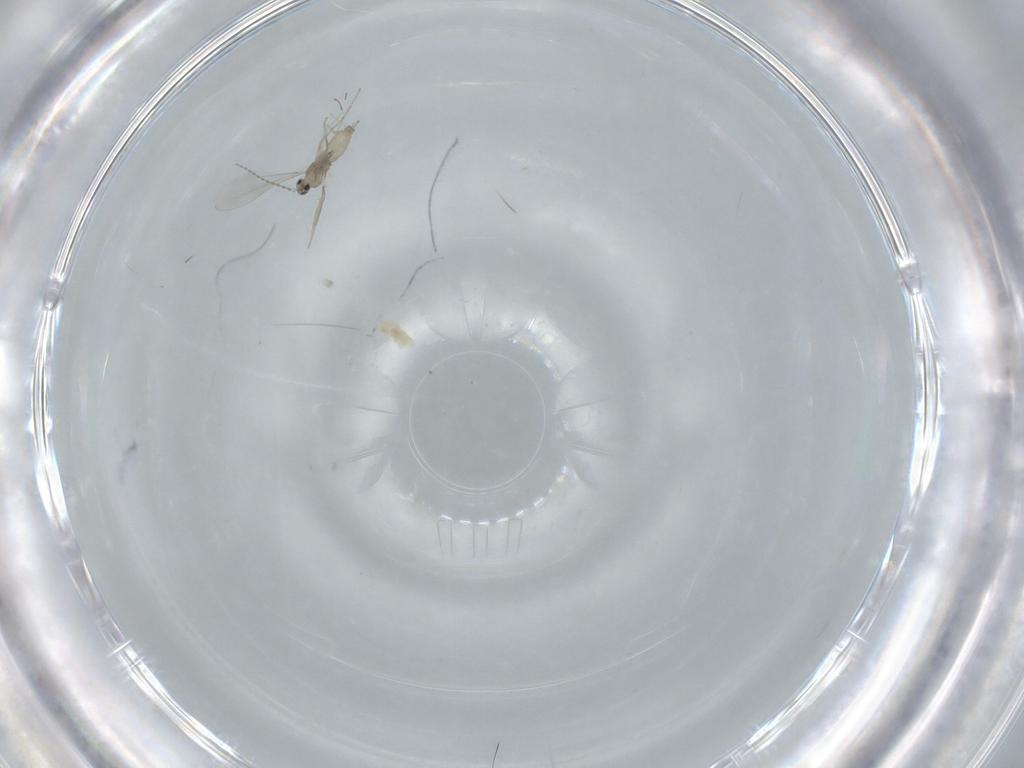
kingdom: Animalia
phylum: Arthropoda
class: Insecta
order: Diptera
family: Cecidomyiidae
